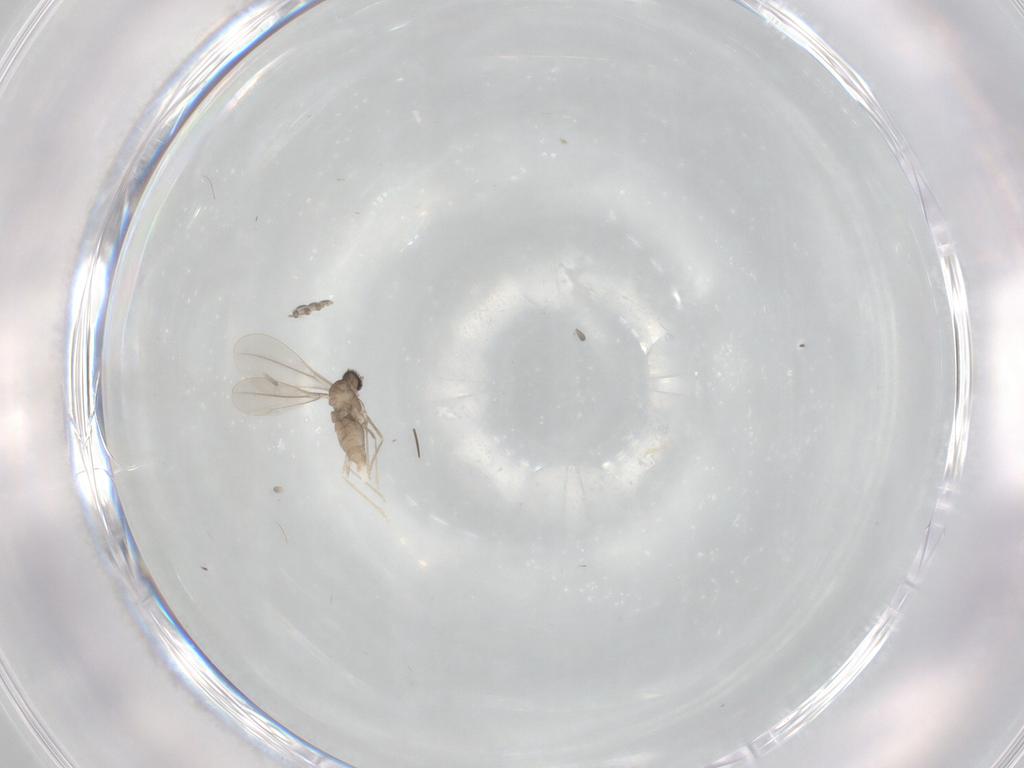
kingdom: Animalia
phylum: Arthropoda
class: Insecta
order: Diptera
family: Cecidomyiidae
